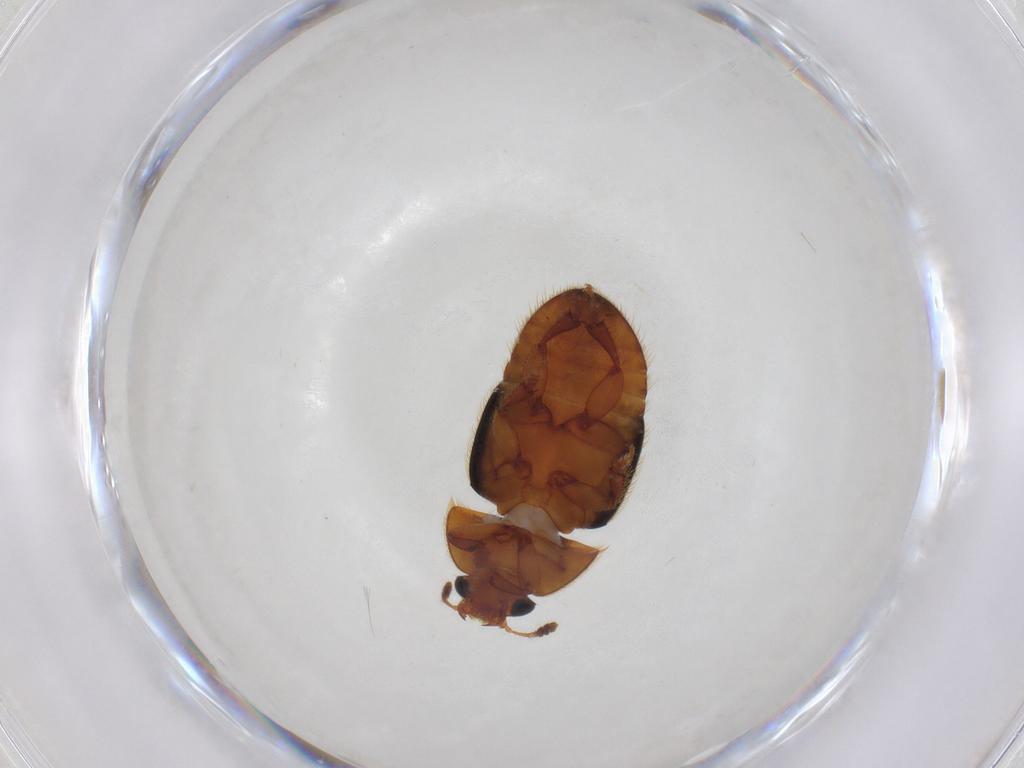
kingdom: Animalia
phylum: Arthropoda
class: Insecta
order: Coleoptera
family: Nitidulidae
